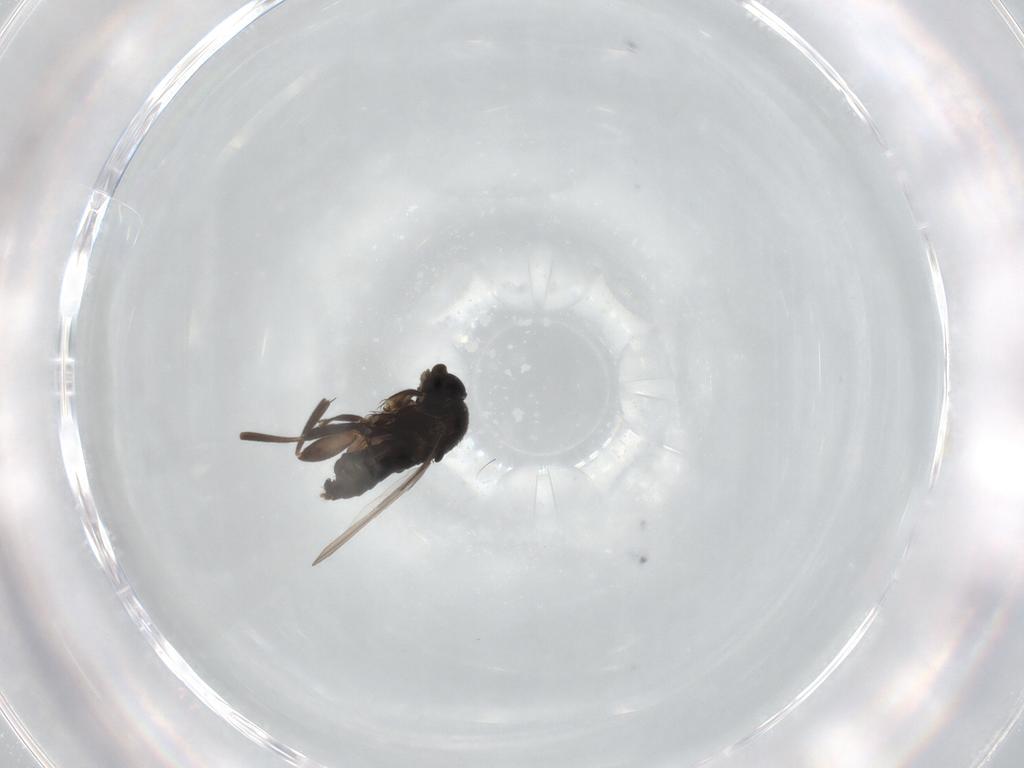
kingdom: Animalia
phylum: Arthropoda
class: Insecta
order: Diptera
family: Phoridae
